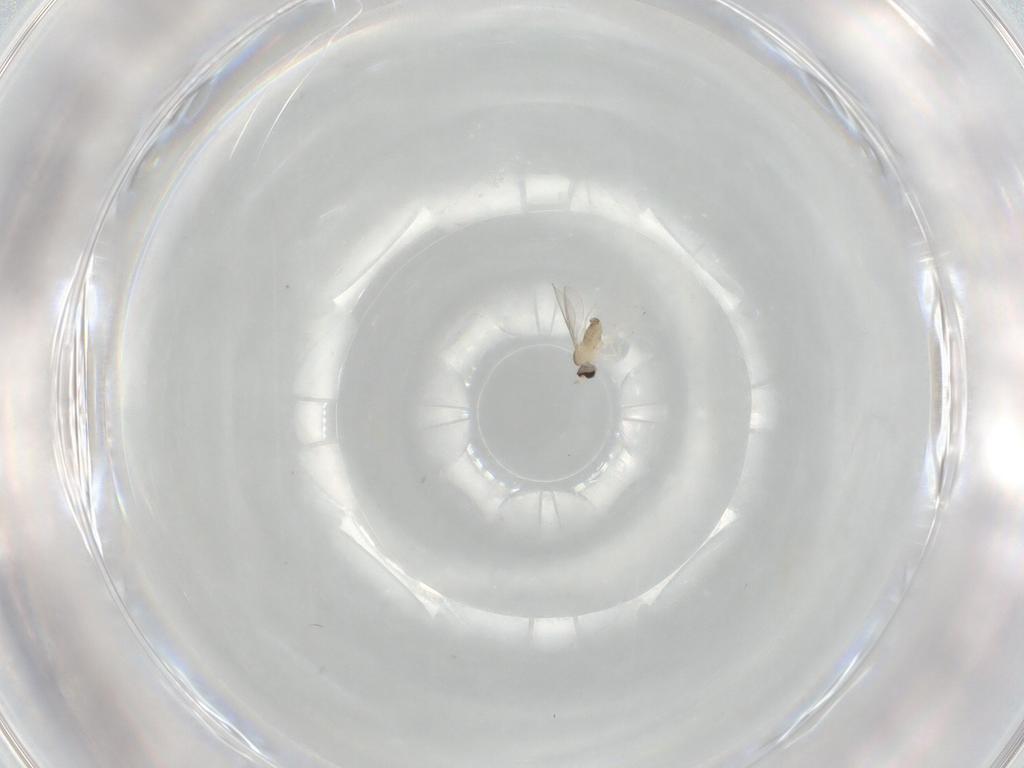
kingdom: Animalia
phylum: Arthropoda
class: Insecta
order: Diptera
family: Cecidomyiidae
